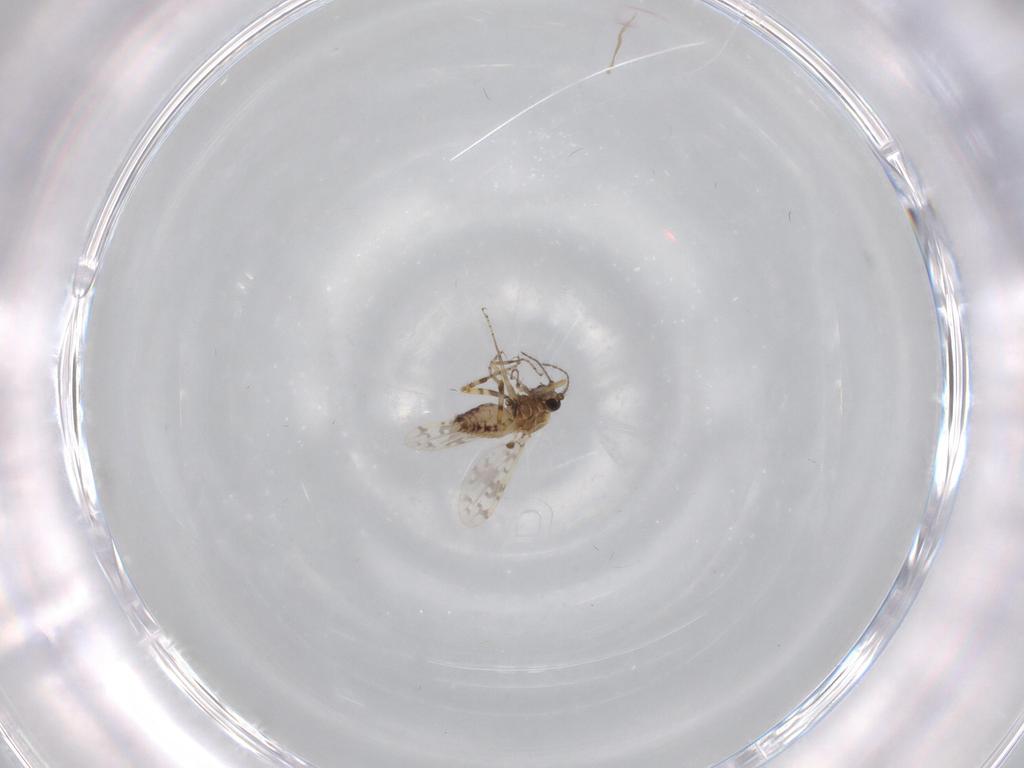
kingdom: Animalia
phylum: Arthropoda
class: Insecta
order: Diptera
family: Ceratopogonidae
